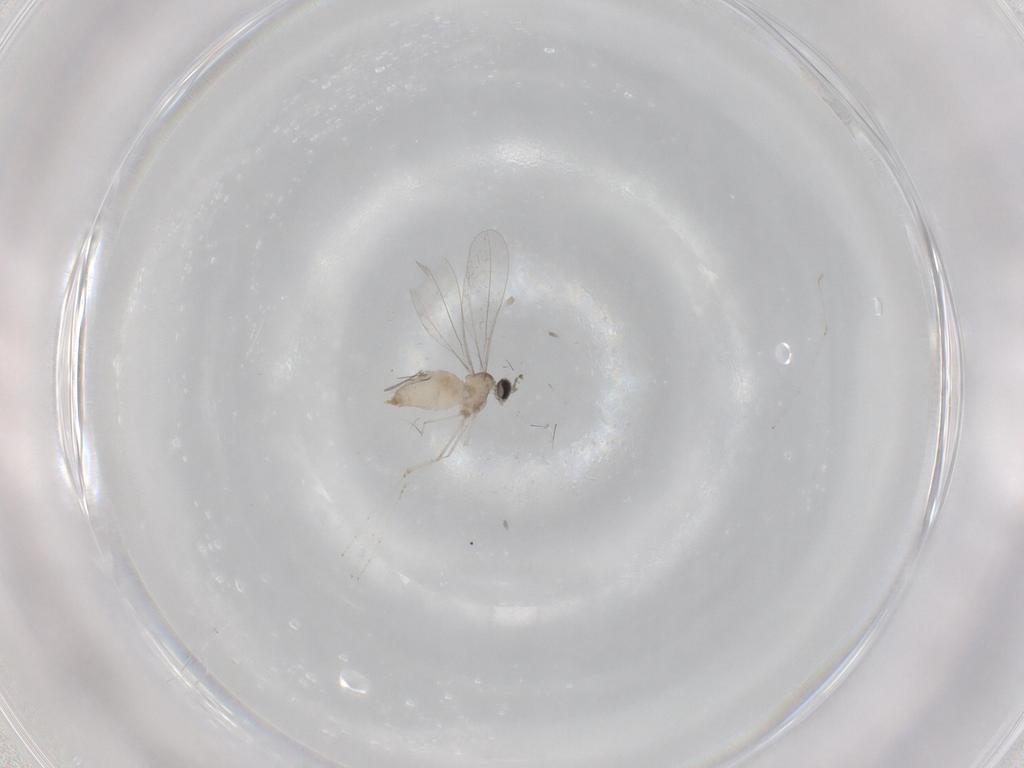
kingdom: Animalia
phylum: Arthropoda
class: Insecta
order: Diptera
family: Cecidomyiidae
